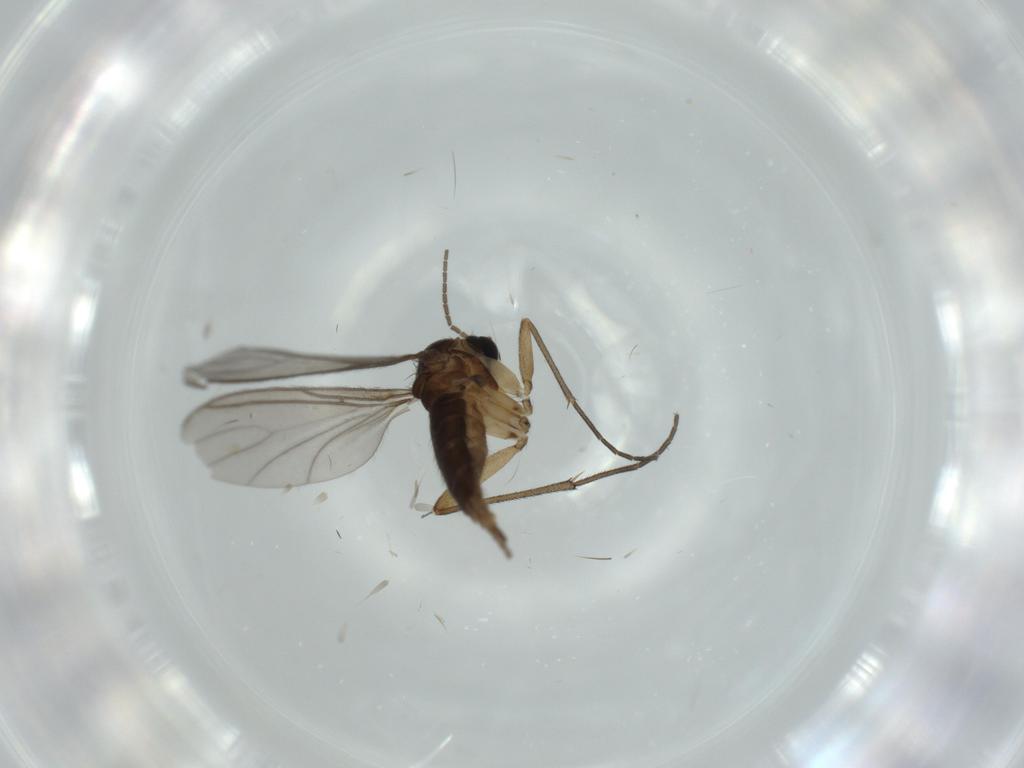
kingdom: Animalia
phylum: Arthropoda
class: Insecta
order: Diptera
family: Sciaridae
